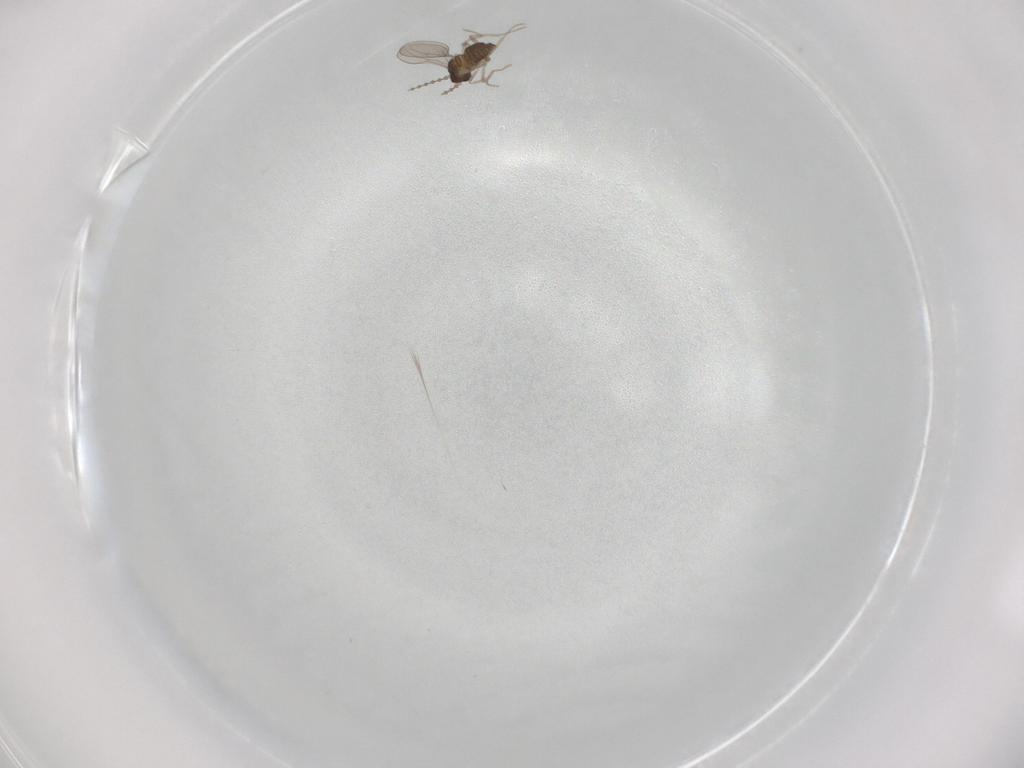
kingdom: Animalia
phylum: Arthropoda
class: Insecta
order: Diptera
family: Cecidomyiidae
